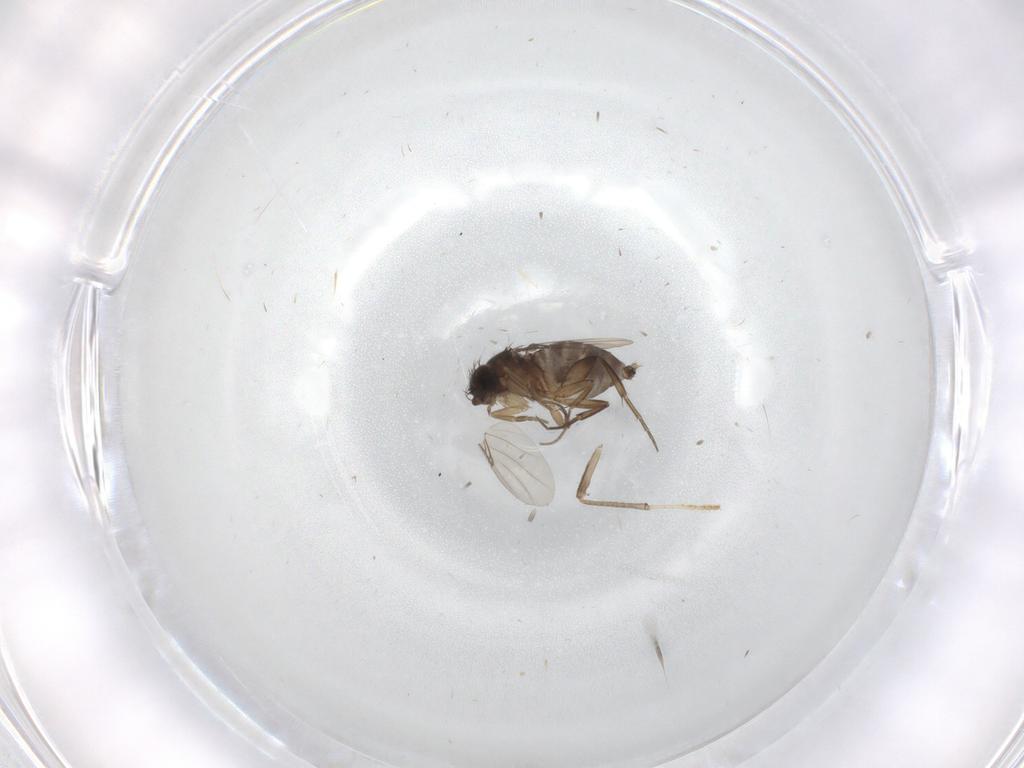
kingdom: Animalia
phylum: Arthropoda
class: Insecta
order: Diptera
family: Phoridae
